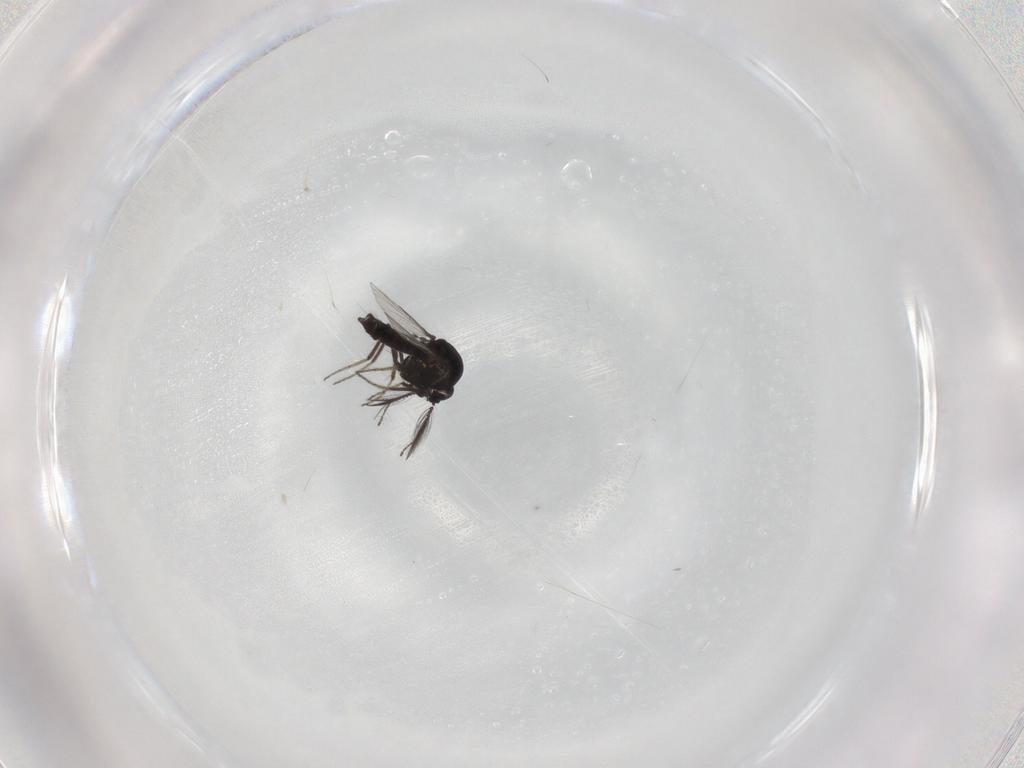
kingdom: Animalia
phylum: Arthropoda
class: Insecta
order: Diptera
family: Ceratopogonidae
